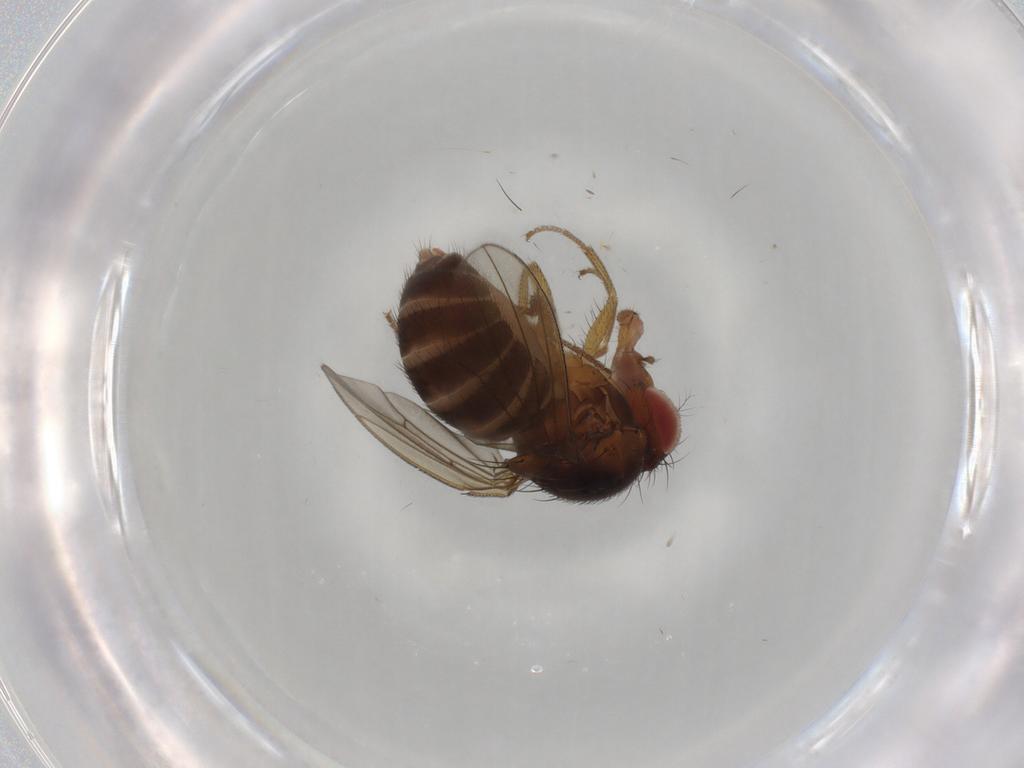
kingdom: Animalia
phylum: Arthropoda
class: Insecta
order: Diptera
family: Drosophilidae
